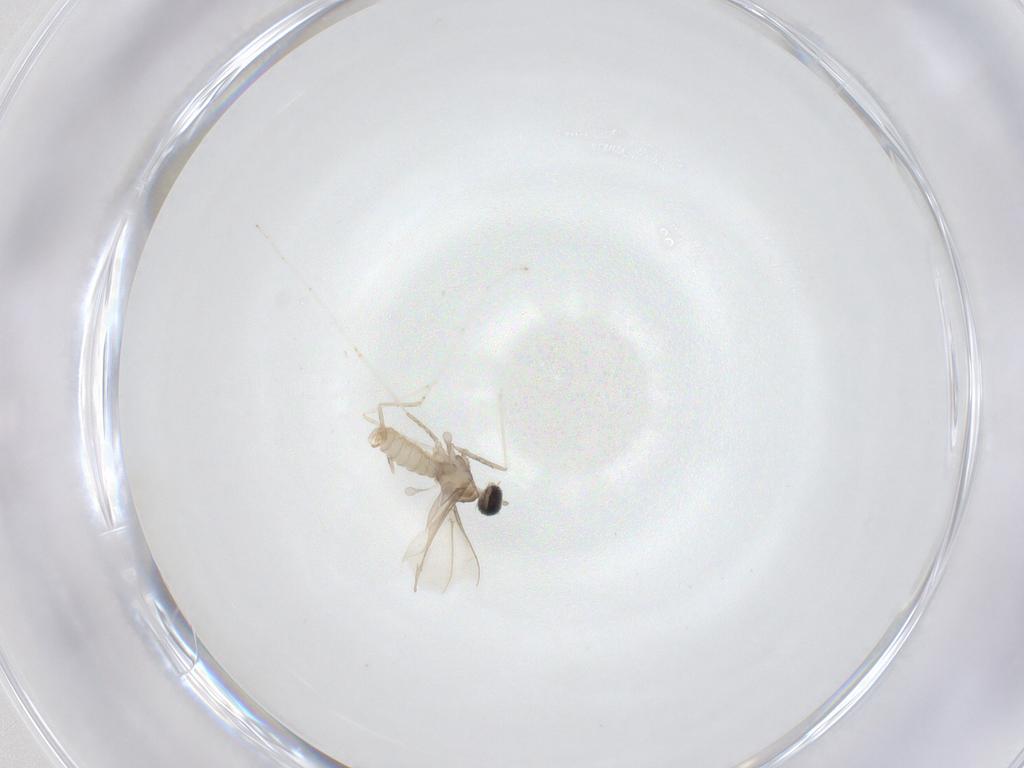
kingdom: Animalia
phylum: Arthropoda
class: Insecta
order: Diptera
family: Cecidomyiidae
